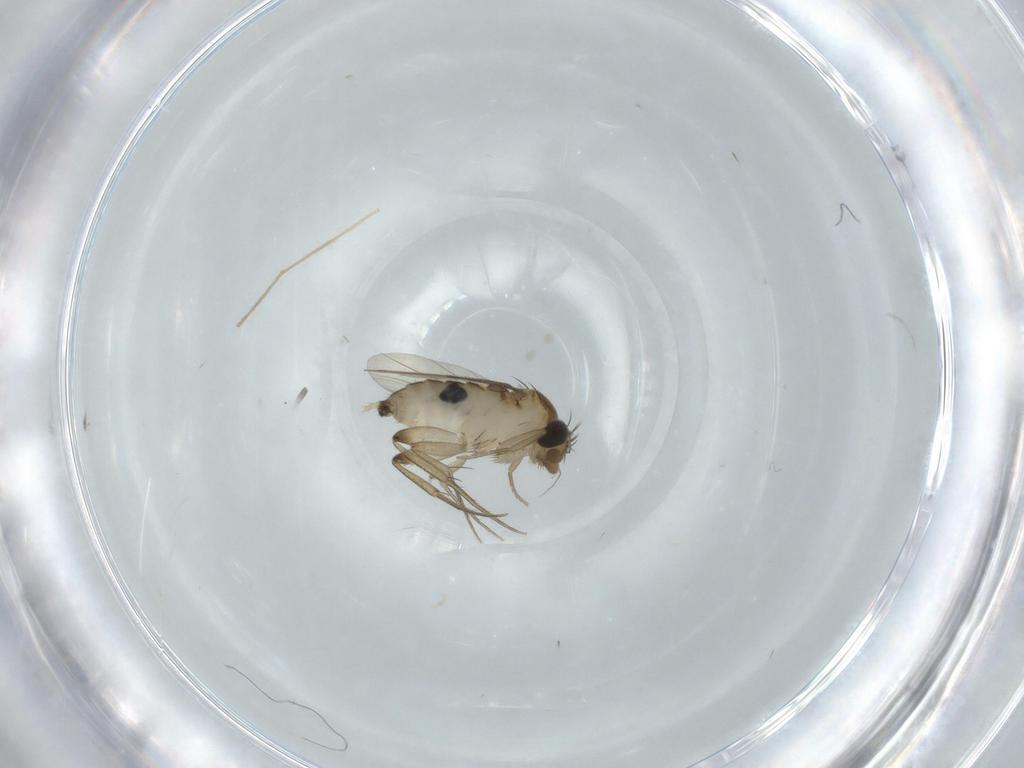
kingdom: Animalia
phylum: Arthropoda
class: Insecta
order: Diptera
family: Phoridae
